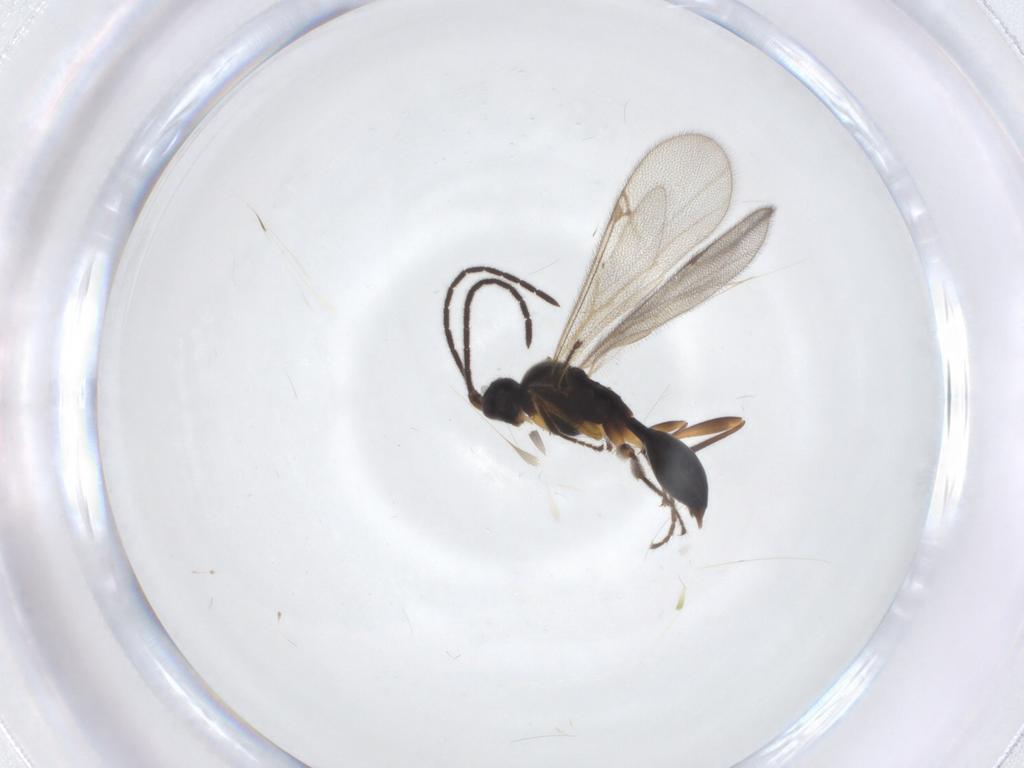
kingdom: Animalia
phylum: Arthropoda
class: Insecta
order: Hymenoptera
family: Proctotrupidae
